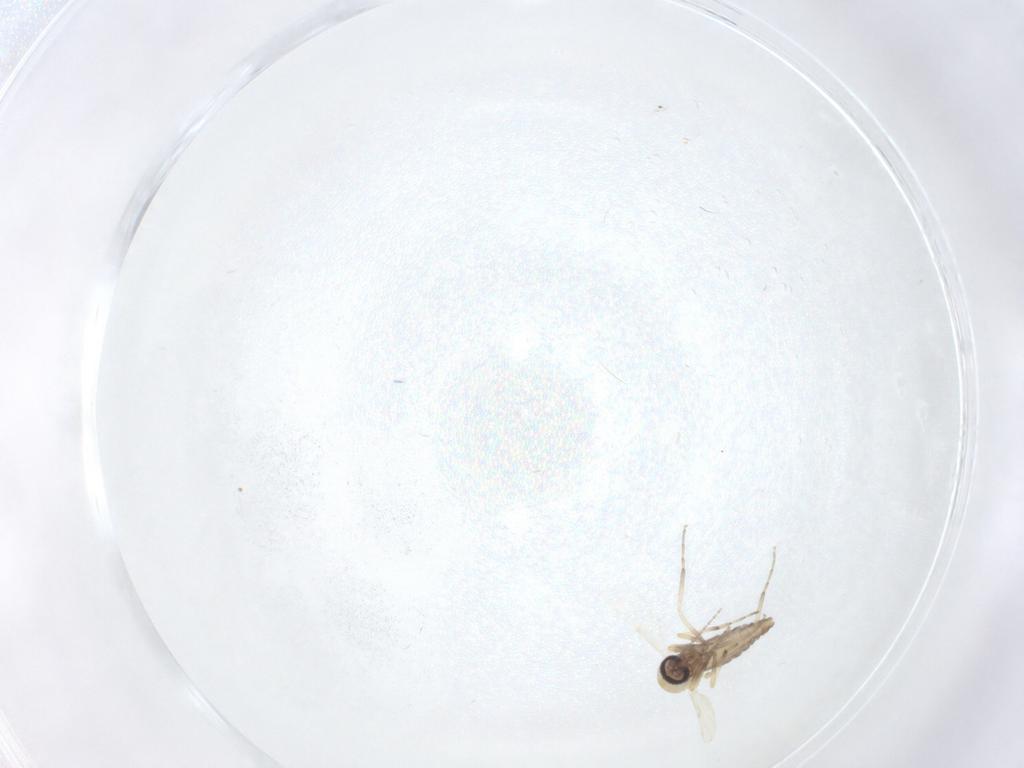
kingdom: Animalia
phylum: Arthropoda
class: Insecta
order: Diptera
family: Ceratopogonidae
